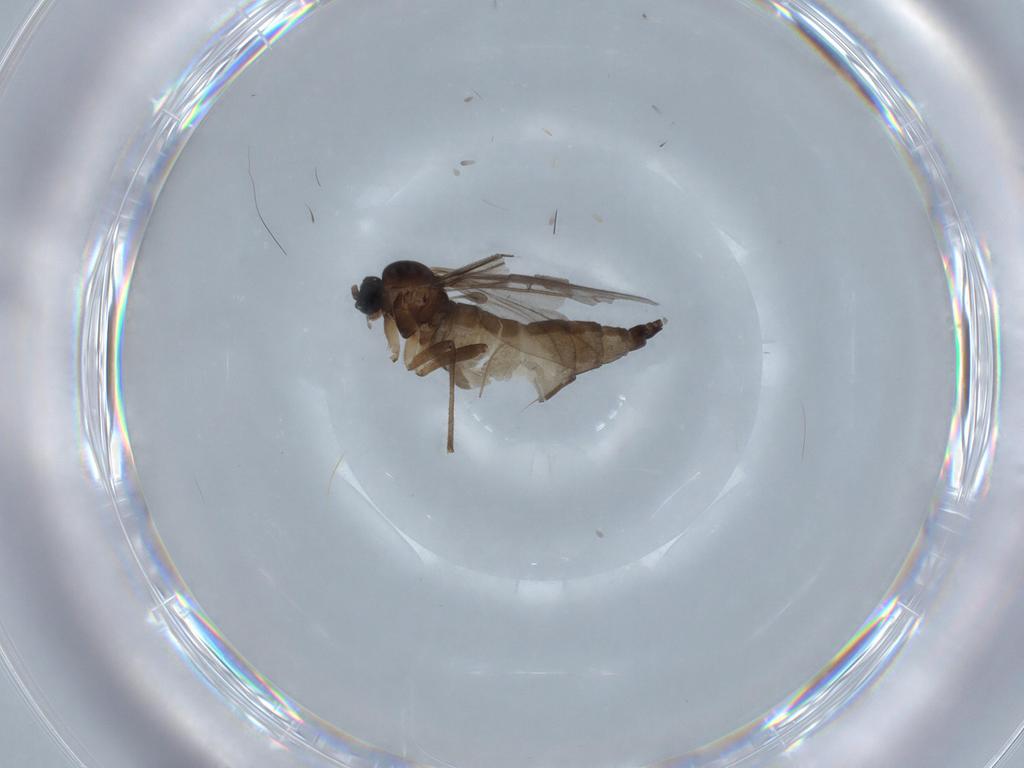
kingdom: Animalia
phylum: Arthropoda
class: Insecta
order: Diptera
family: Sciaridae
